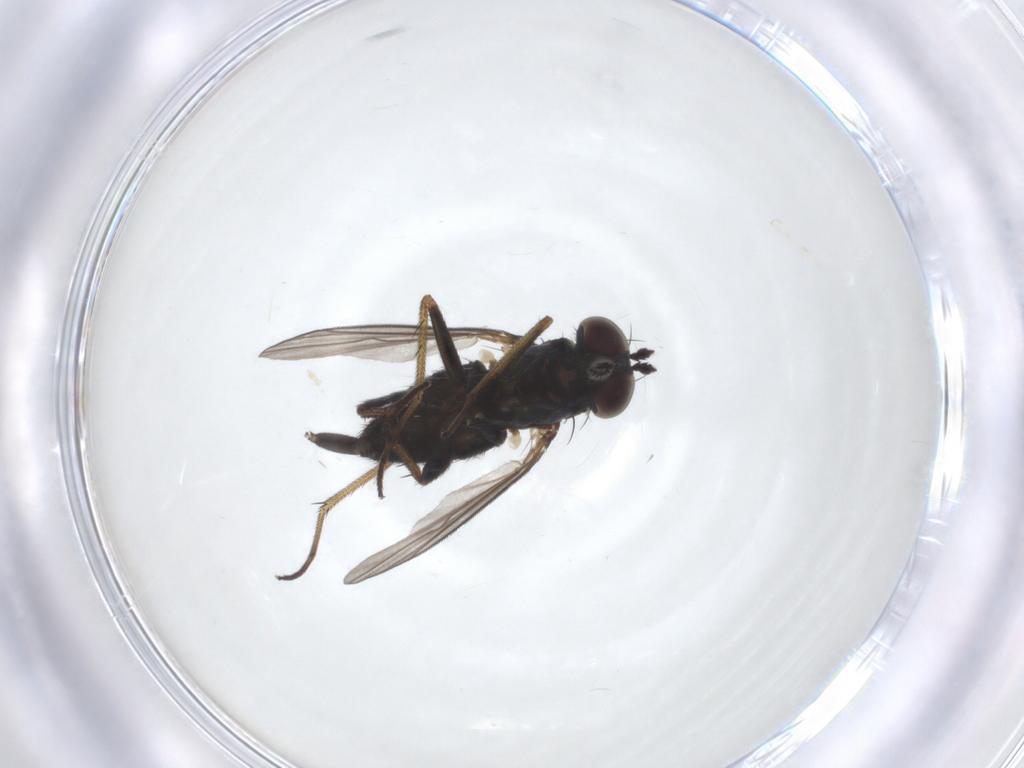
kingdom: Animalia
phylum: Arthropoda
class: Insecta
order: Diptera
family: Dolichopodidae
